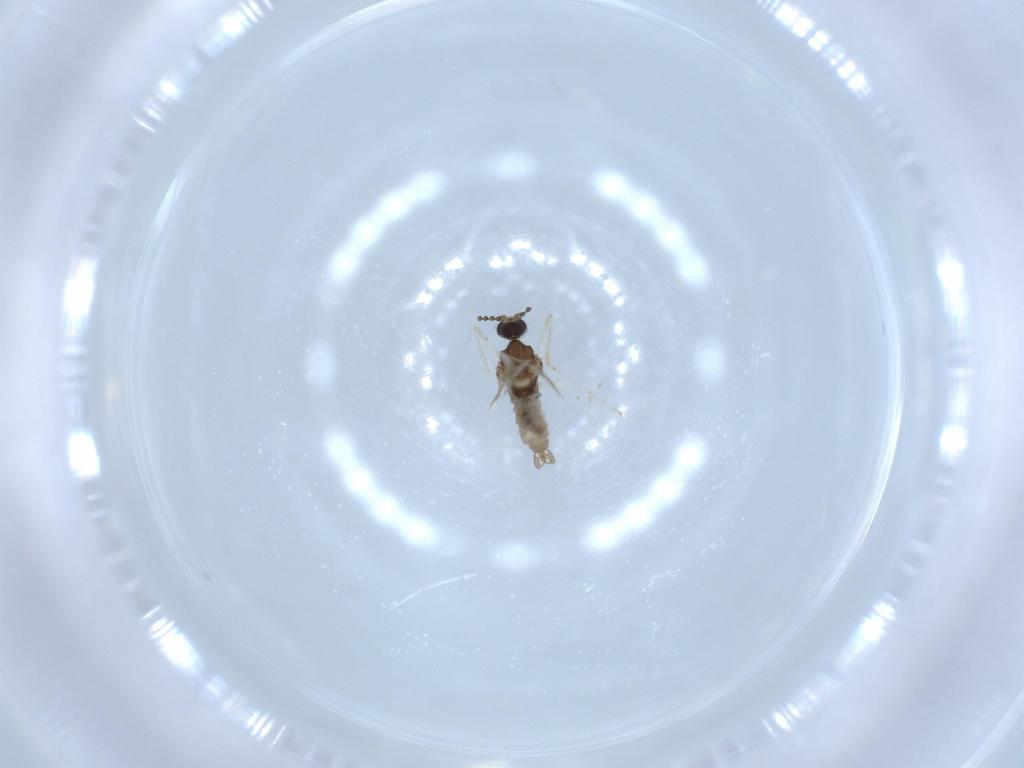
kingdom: Animalia
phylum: Arthropoda
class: Insecta
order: Diptera
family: Cecidomyiidae
